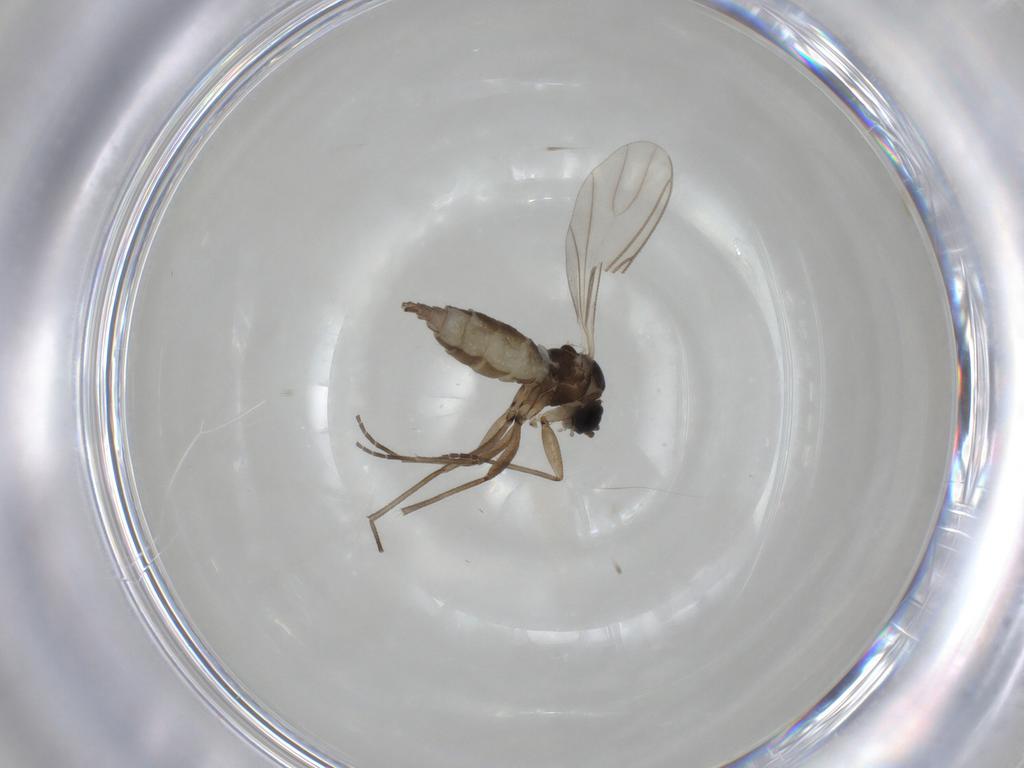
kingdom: Animalia
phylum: Arthropoda
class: Insecta
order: Diptera
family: Mycetophilidae
